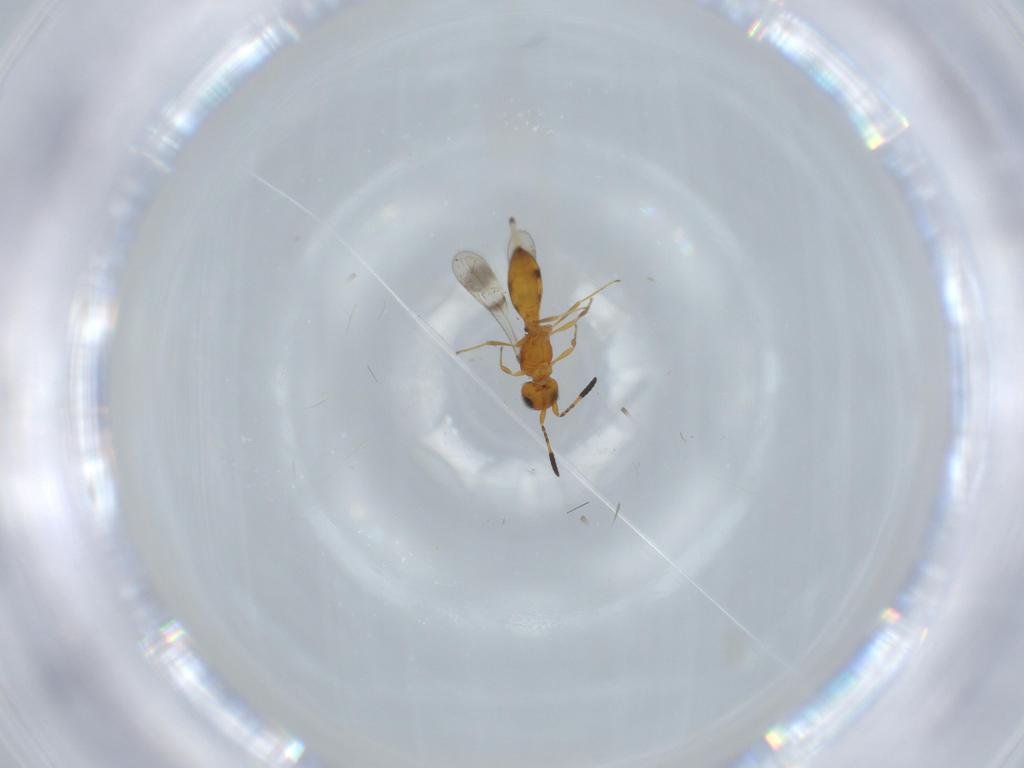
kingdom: Animalia
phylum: Arthropoda
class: Insecta
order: Hymenoptera
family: Scelionidae
